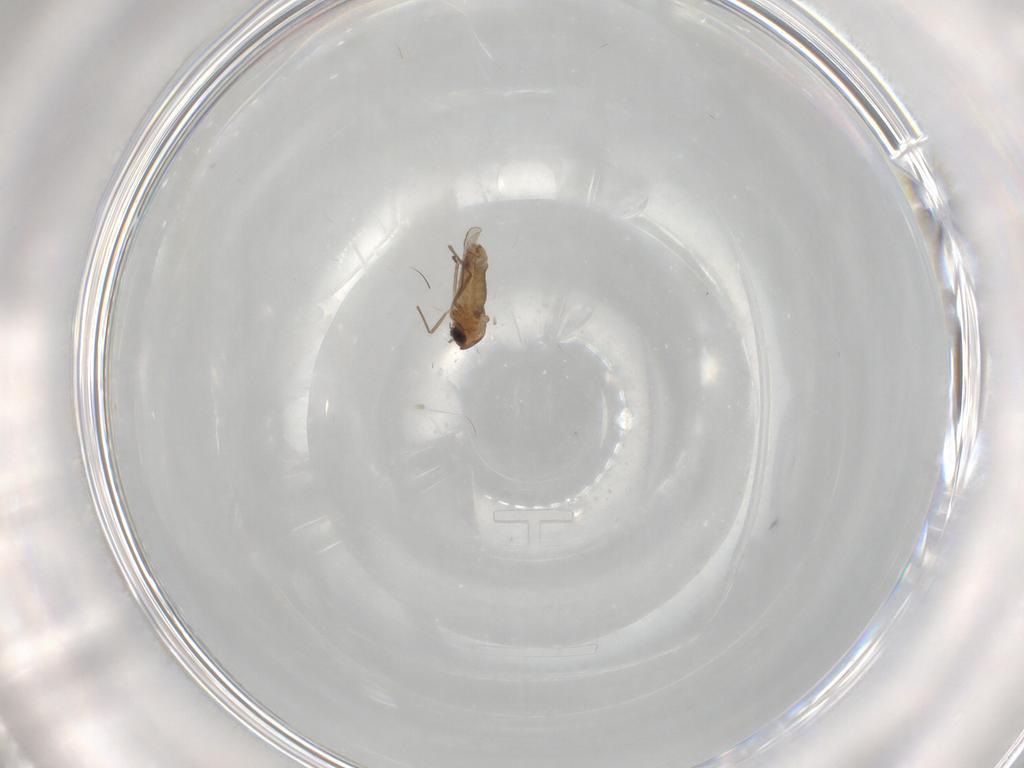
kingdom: Animalia
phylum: Arthropoda
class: Insecta
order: Diptera
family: Chironomidae
